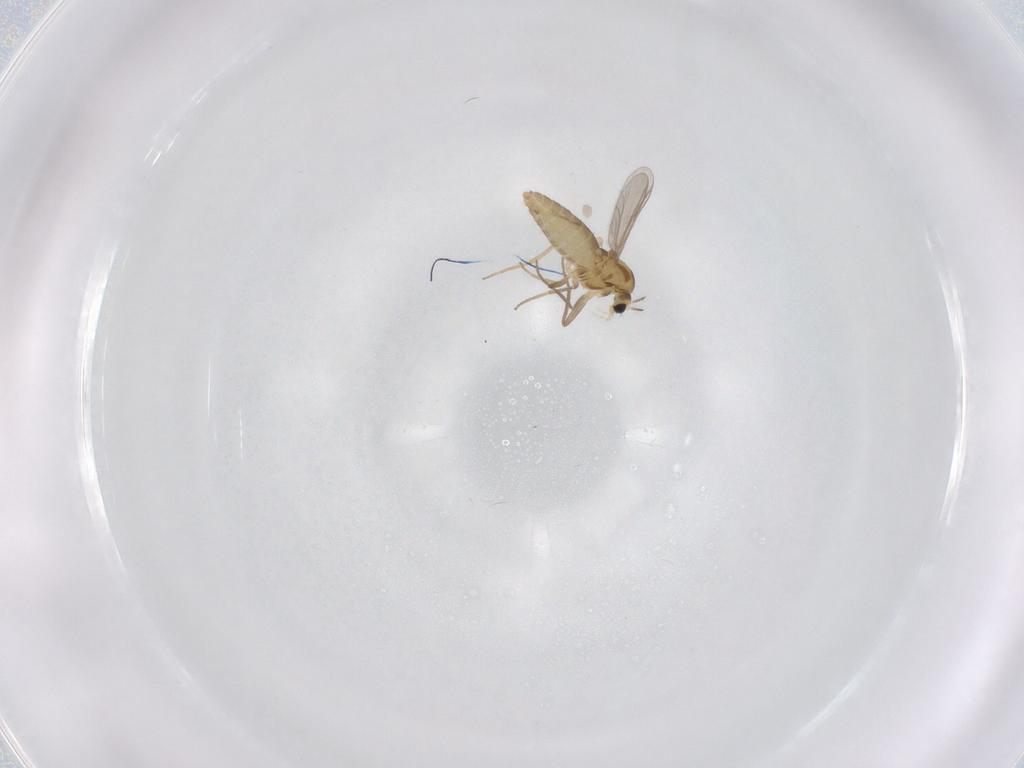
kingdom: Animalia
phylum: Arthropoda
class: Insecta
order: Diptera
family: Chironomidae
